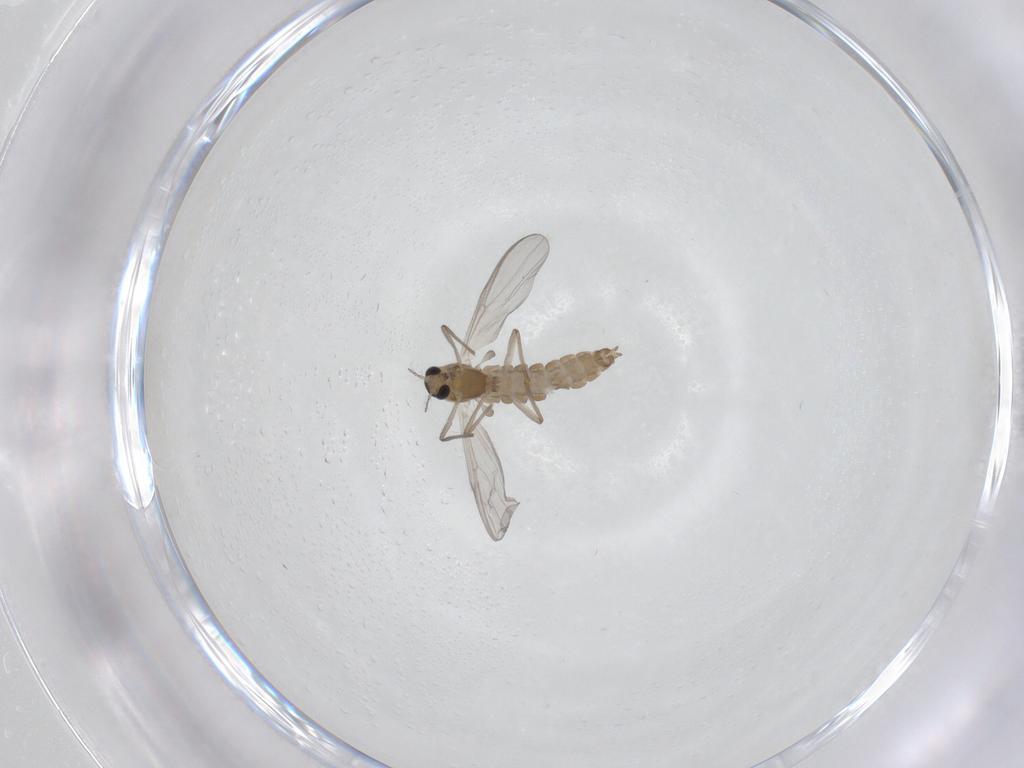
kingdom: Animalia
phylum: Arthropoda
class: Insecta
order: Diptera
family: Chironomidae
